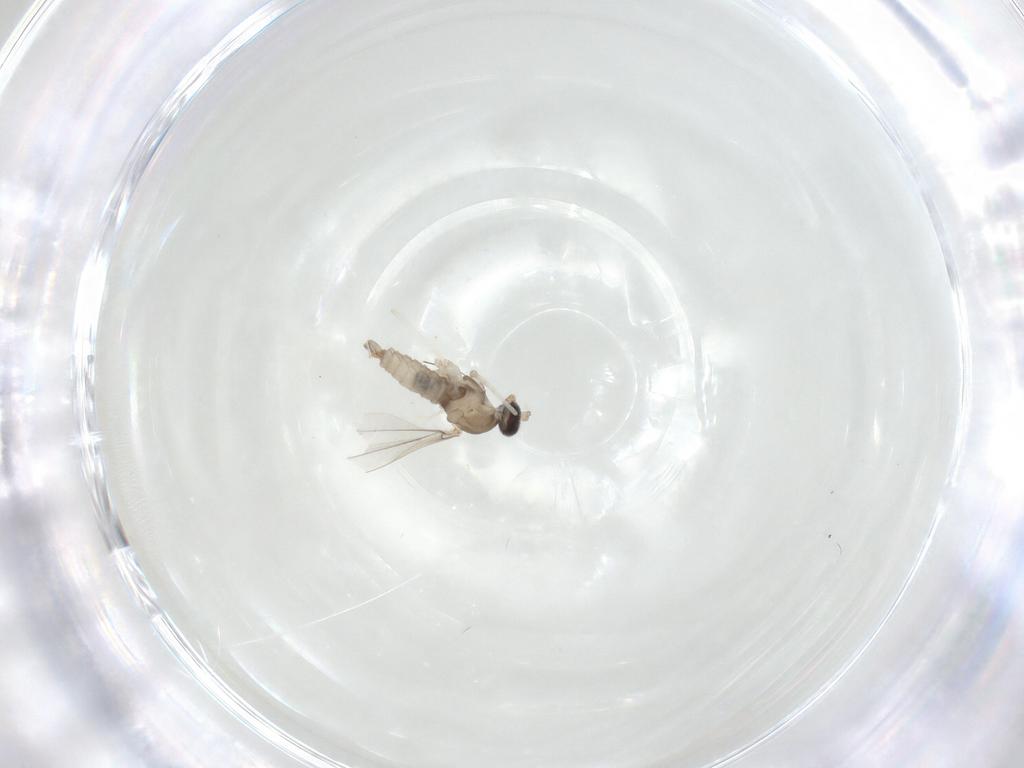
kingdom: Animalia
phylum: Arthropoda
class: Insecta
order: Diptera
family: Cecidomyiidae
